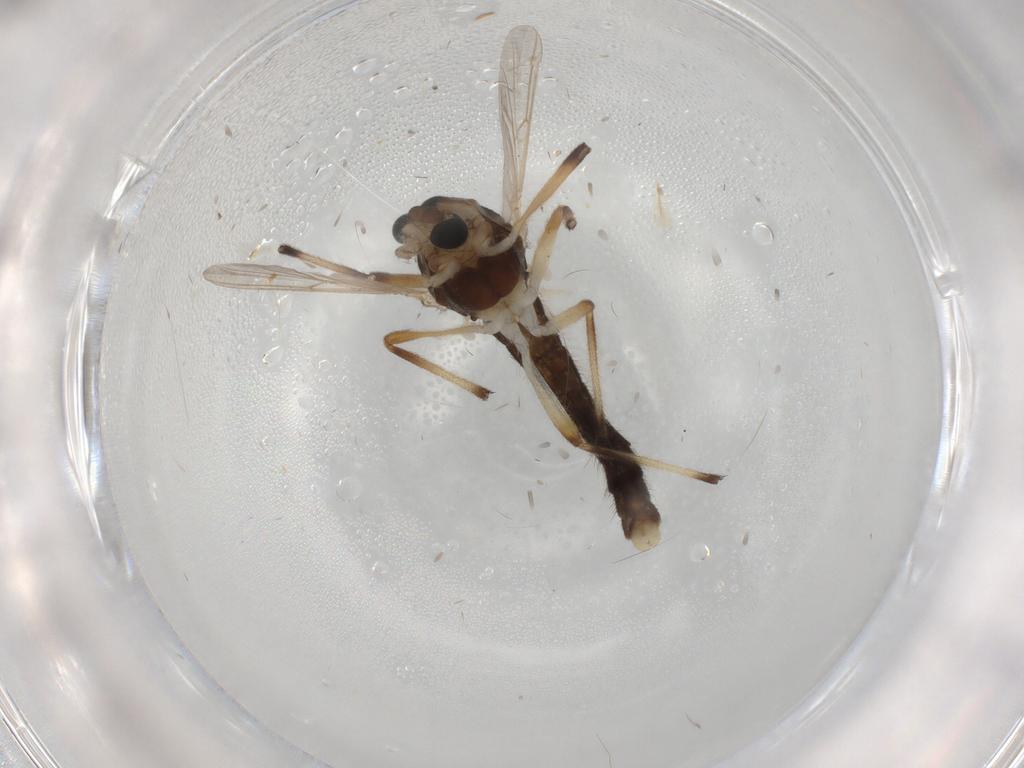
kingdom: Animalia
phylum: Arthropoda
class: Insecta
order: Diptera
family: Chironomidae
